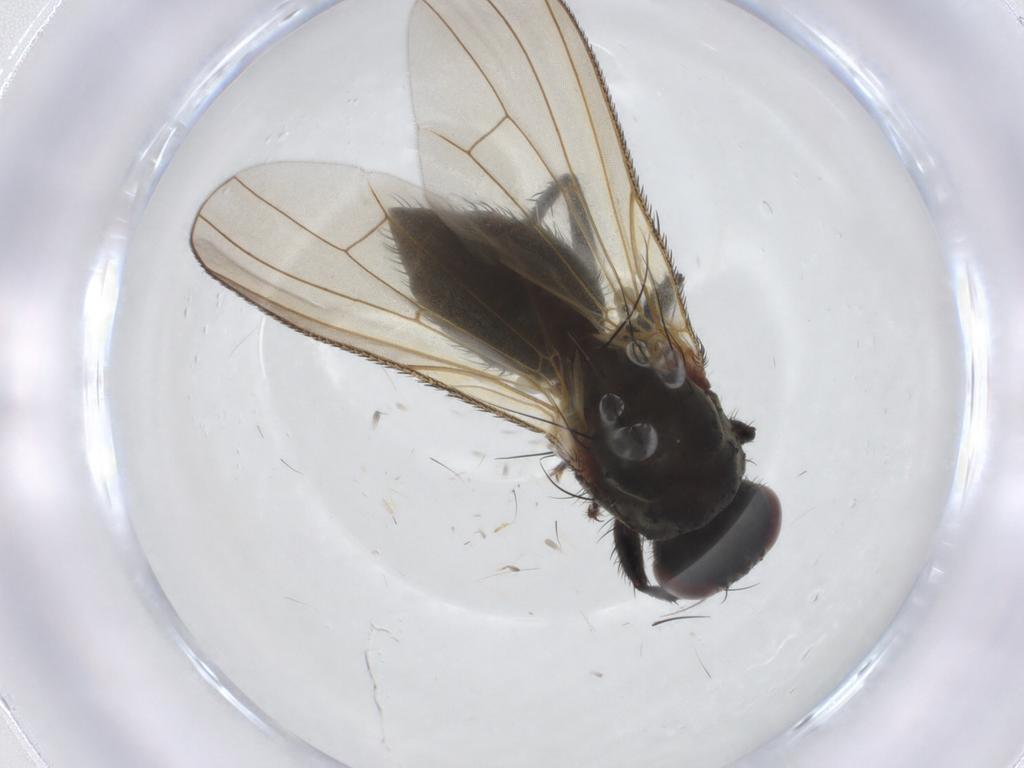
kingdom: Animalia
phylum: Arthropoda
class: Insecta
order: Diptera
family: Anthomyiidae
